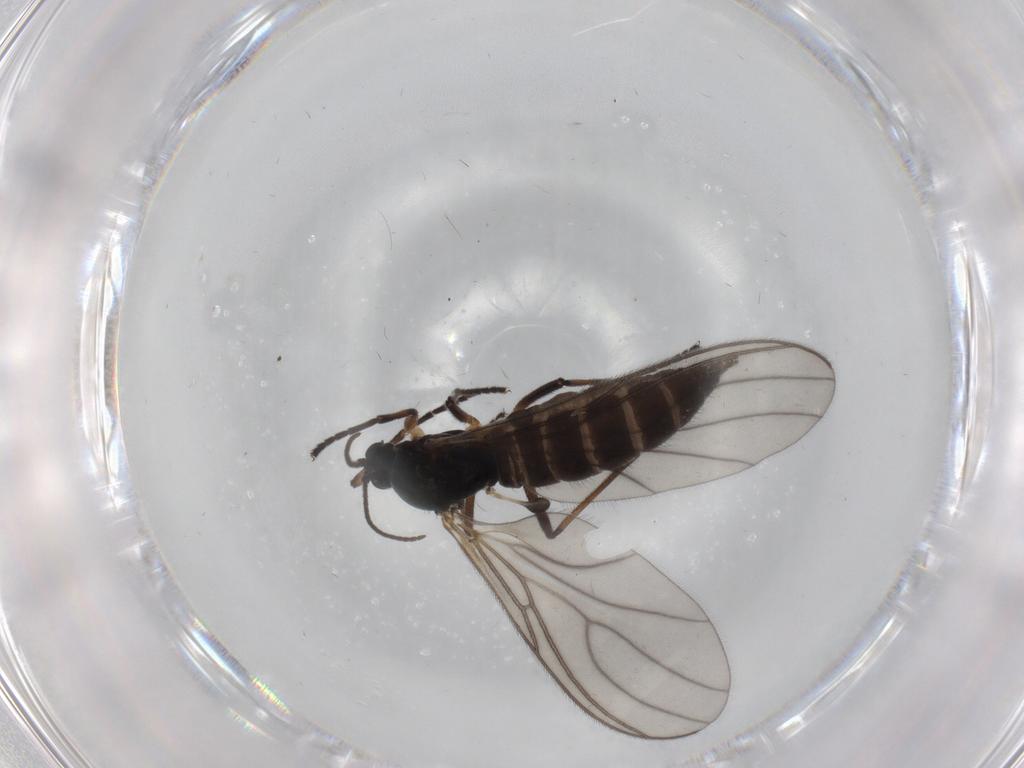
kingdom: Animalia
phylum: Arthropoda
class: Insecta
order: Diptera
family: Sciaridae
